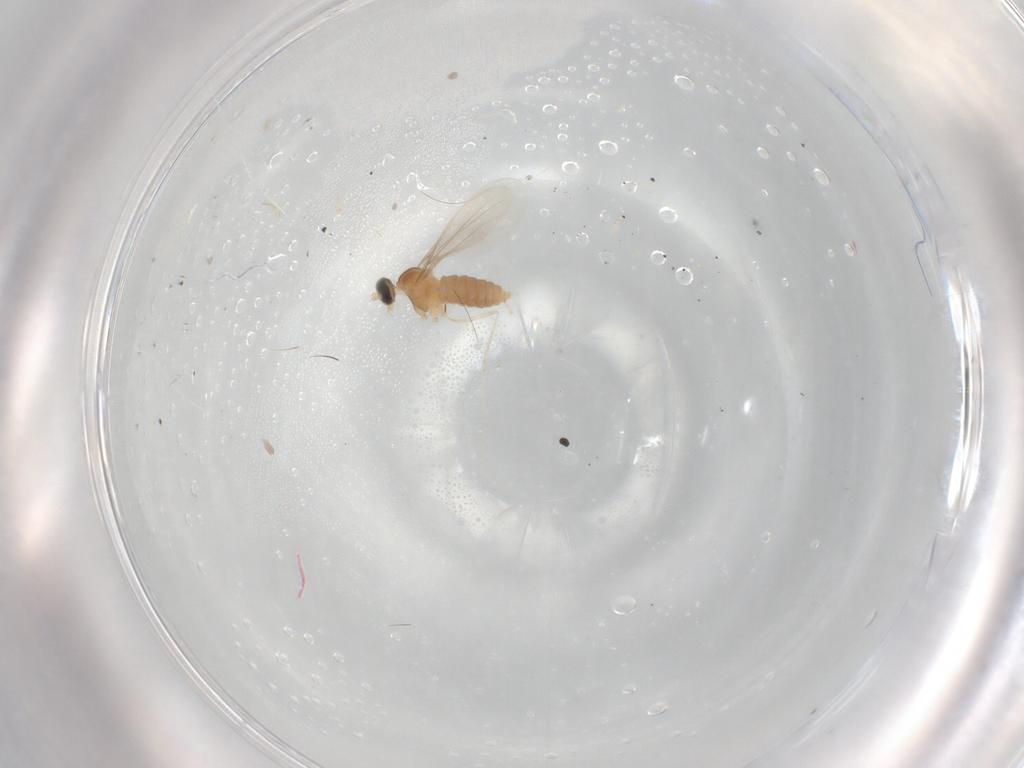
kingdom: Animalia
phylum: Arthropoda
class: Insecta
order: Diptera
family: Cecidomyiidae
